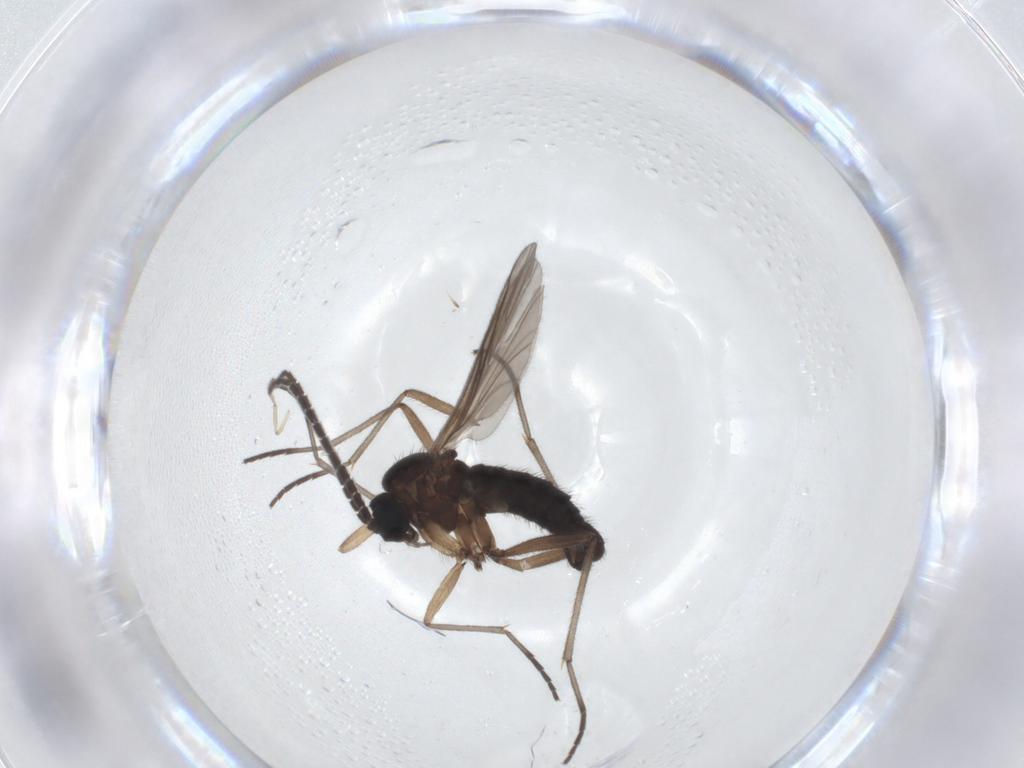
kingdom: Animalia
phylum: Arthropoda
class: Insecta
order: Diptera
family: Sciaridae
